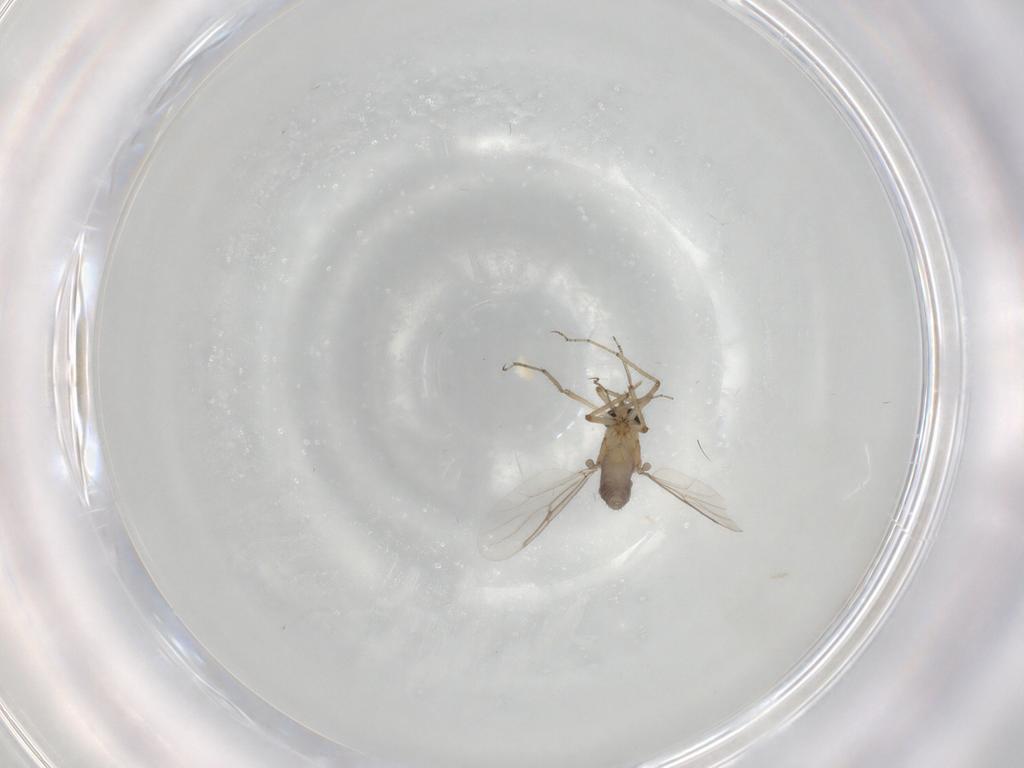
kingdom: Animalia
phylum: Arthropoda
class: Insecta
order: Diptera
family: Ceratopogonidae
